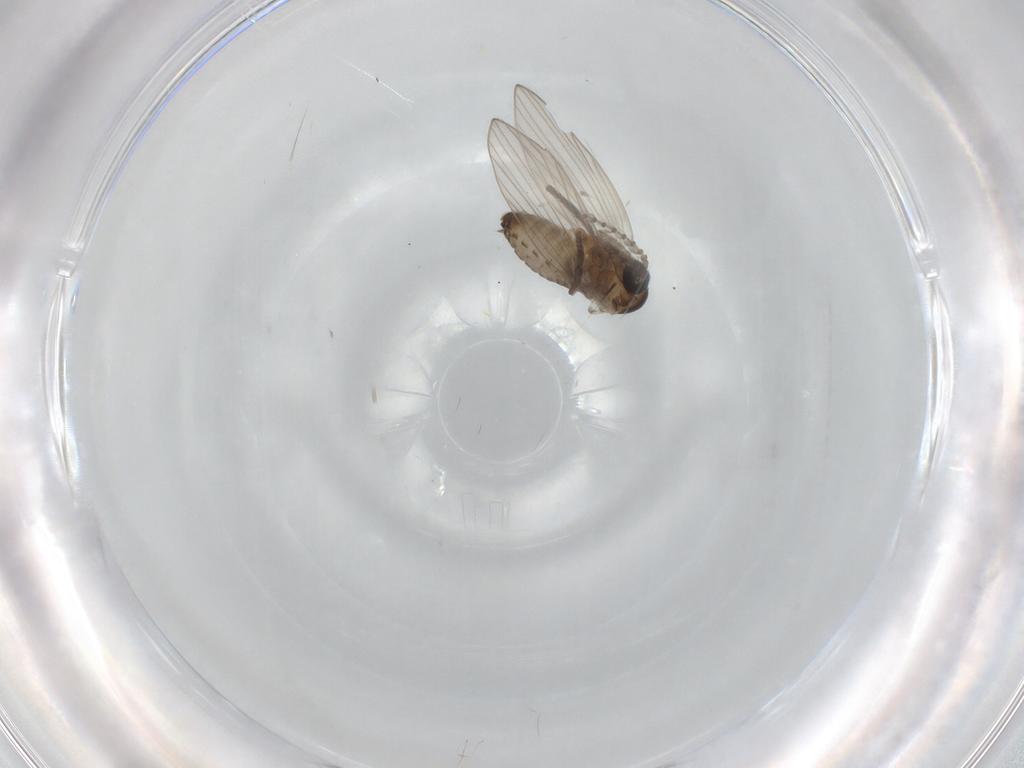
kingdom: Animalia
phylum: Arthropoda
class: Insecta
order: Diptera
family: Psychodidae
